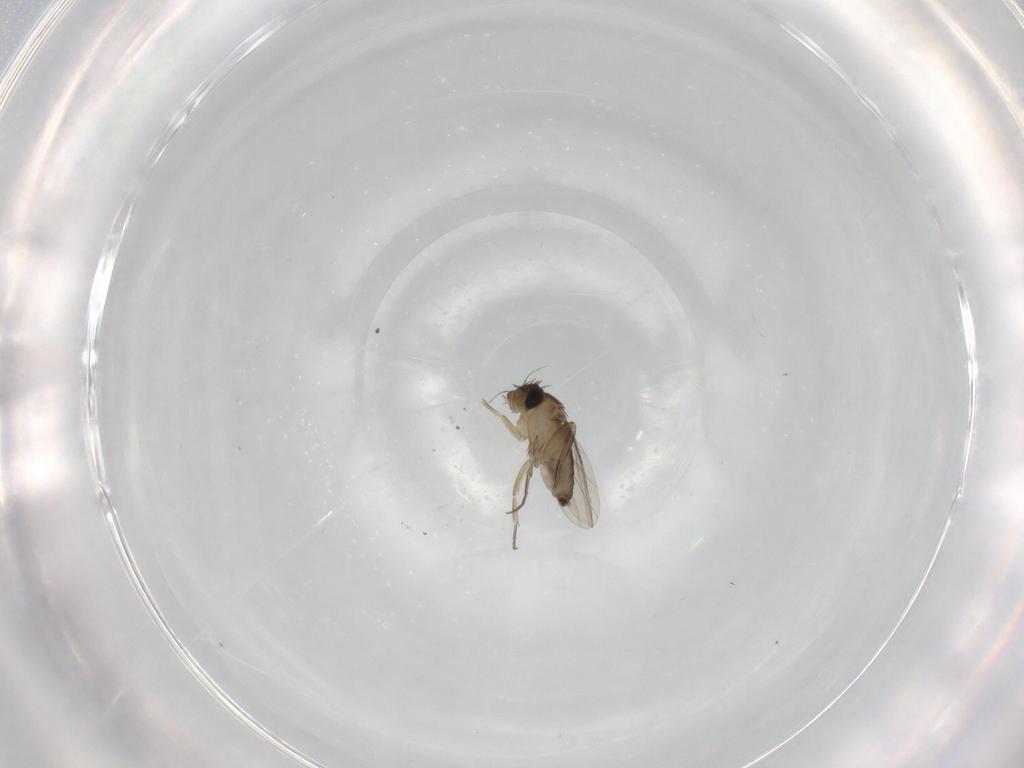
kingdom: Animalia
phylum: Arthropoda
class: Insecta
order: Diptera
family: Phoridae
